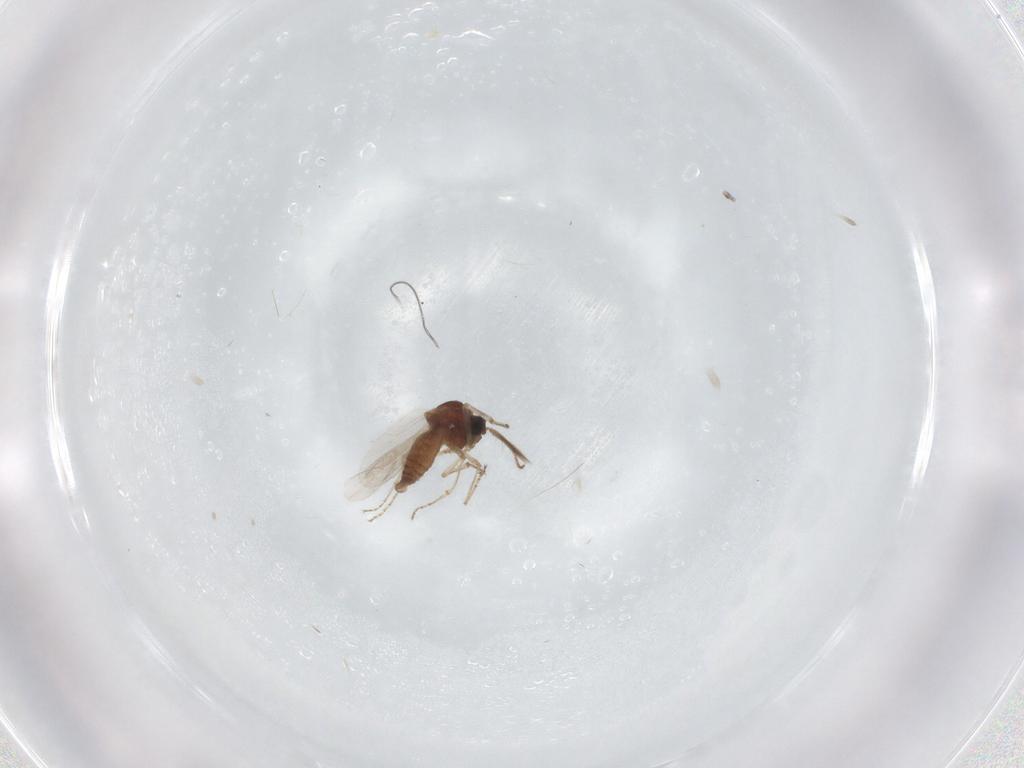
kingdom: Animalia
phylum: Arthropoda
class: Insecta
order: Diptera
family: Ceratopogonidae
